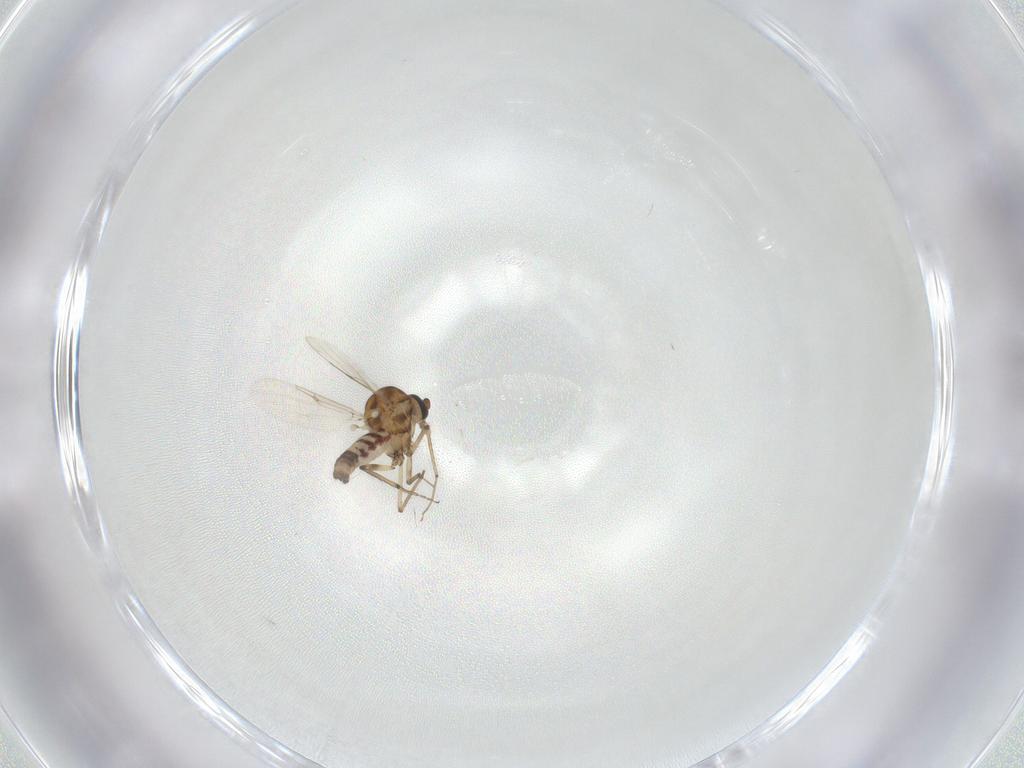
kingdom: Animalia
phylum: Arthropoda
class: Insecta
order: Diptera
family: Ceratopogonidae
